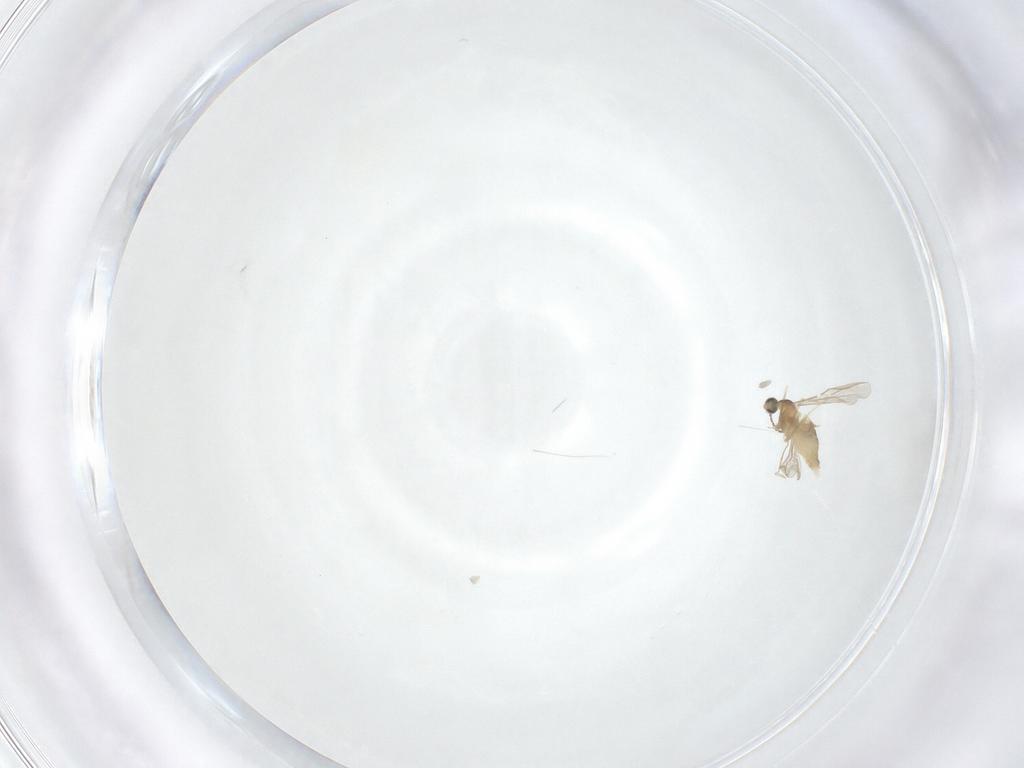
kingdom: Animalia
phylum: Arthropoda
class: Insecta
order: Diptera
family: Cecidomyiidae
